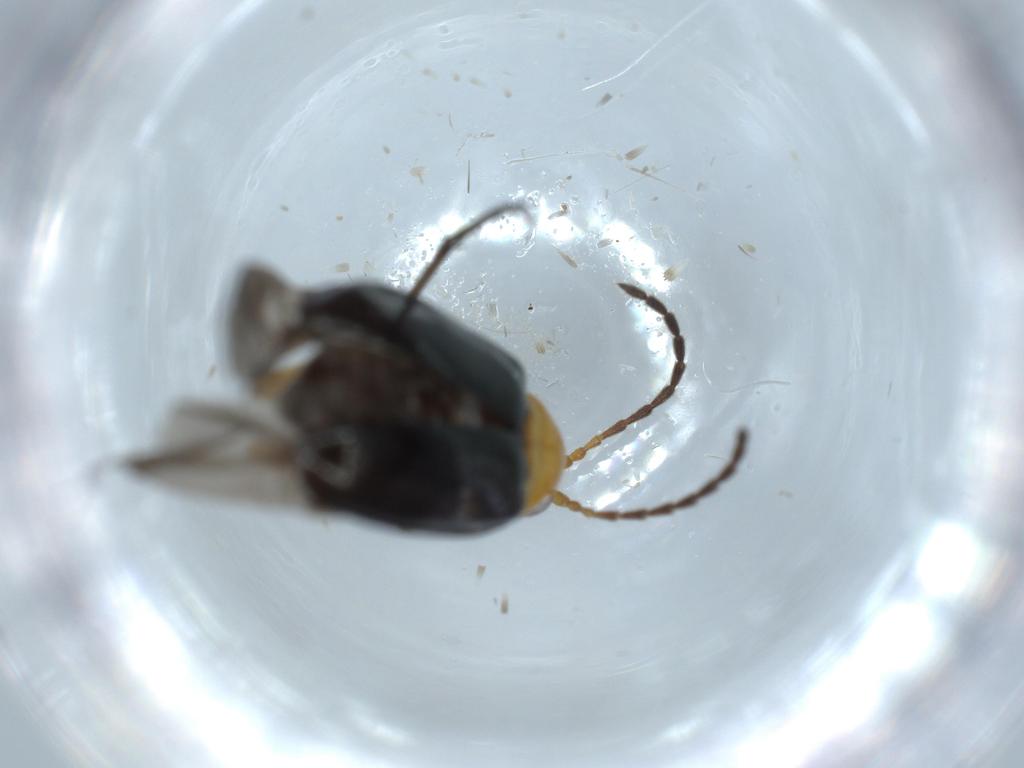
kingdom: Animalia
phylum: Arthropoda
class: Insecta
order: Coleoptera
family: Chrysomelidae
